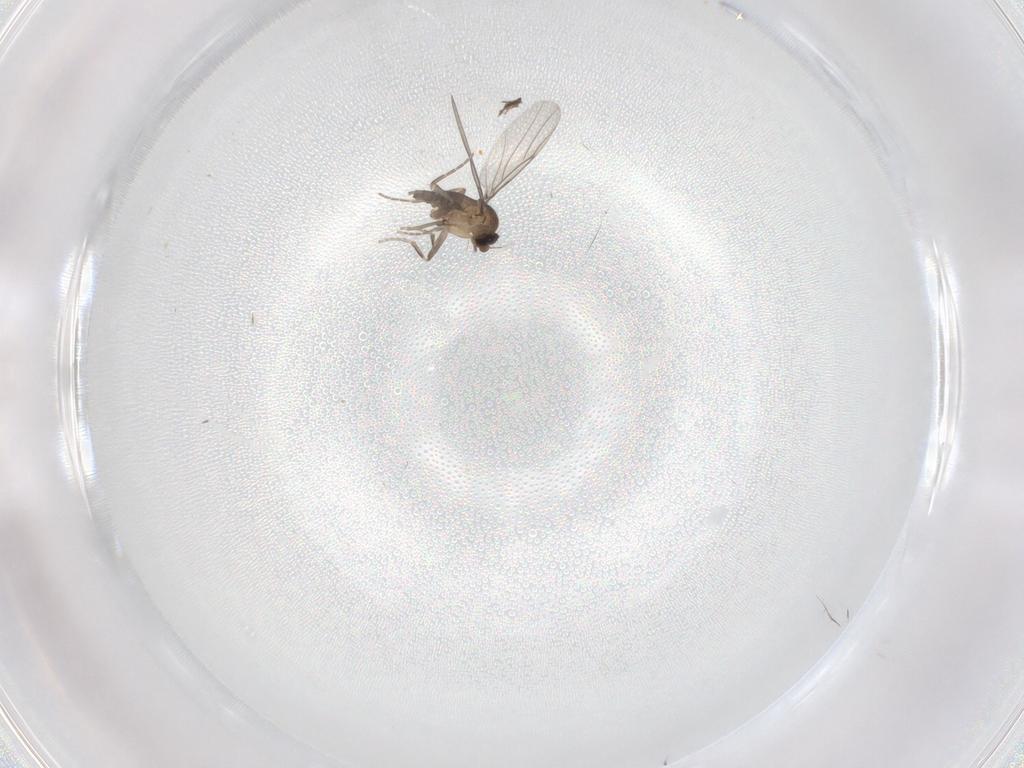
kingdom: Animalia
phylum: Arthropoda
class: Insecta
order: Diptera
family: Phoridae
